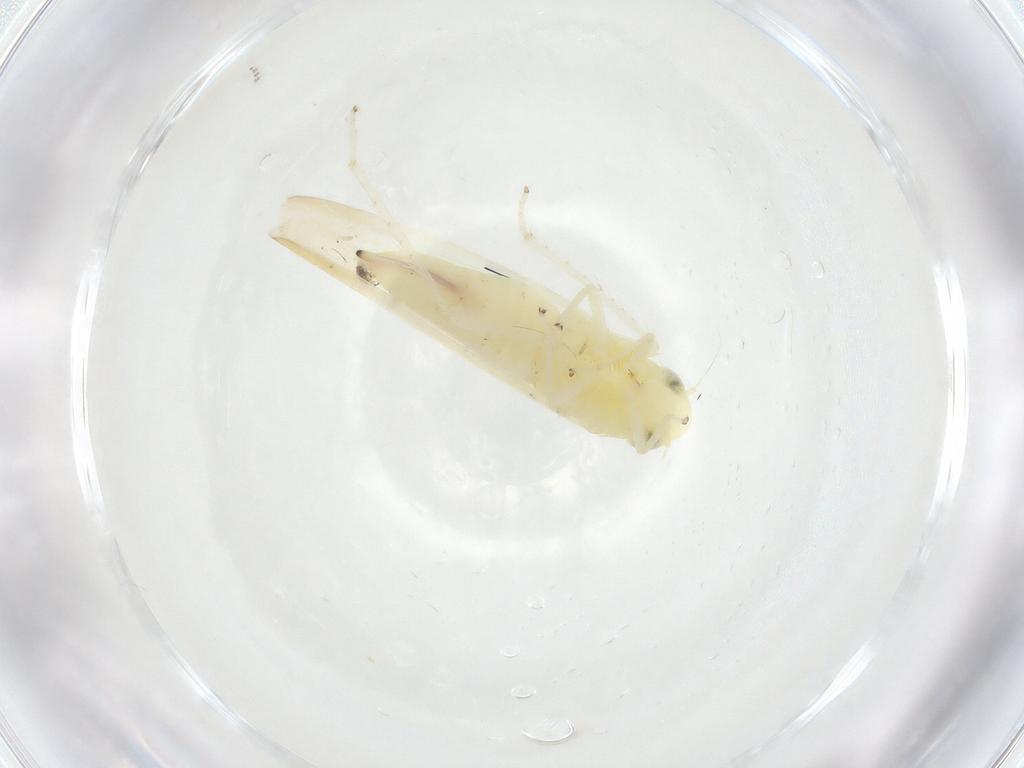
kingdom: Animalia
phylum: Arthropoda
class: Insecta
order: Hemiptera
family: Cicadellidae
